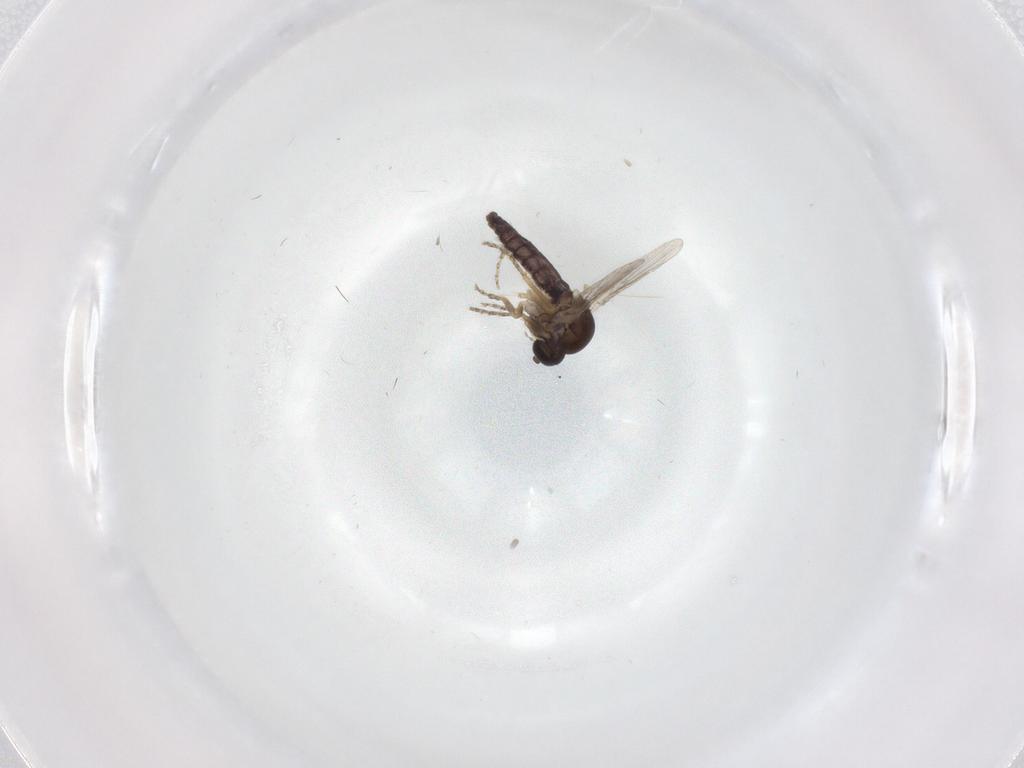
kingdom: Animalia
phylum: Arthropoda
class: Insecta
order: Diptera
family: Ceratopogonidae
